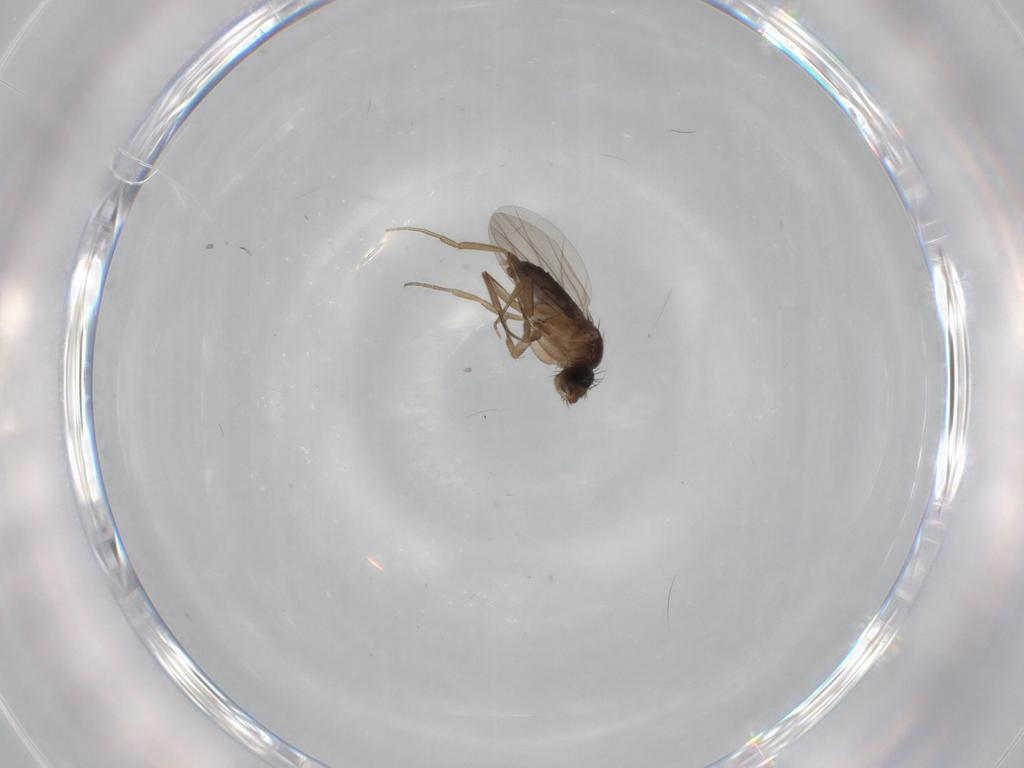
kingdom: Animalia
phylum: Arthropoda
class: Insecta
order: Diptera
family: Phoridae
